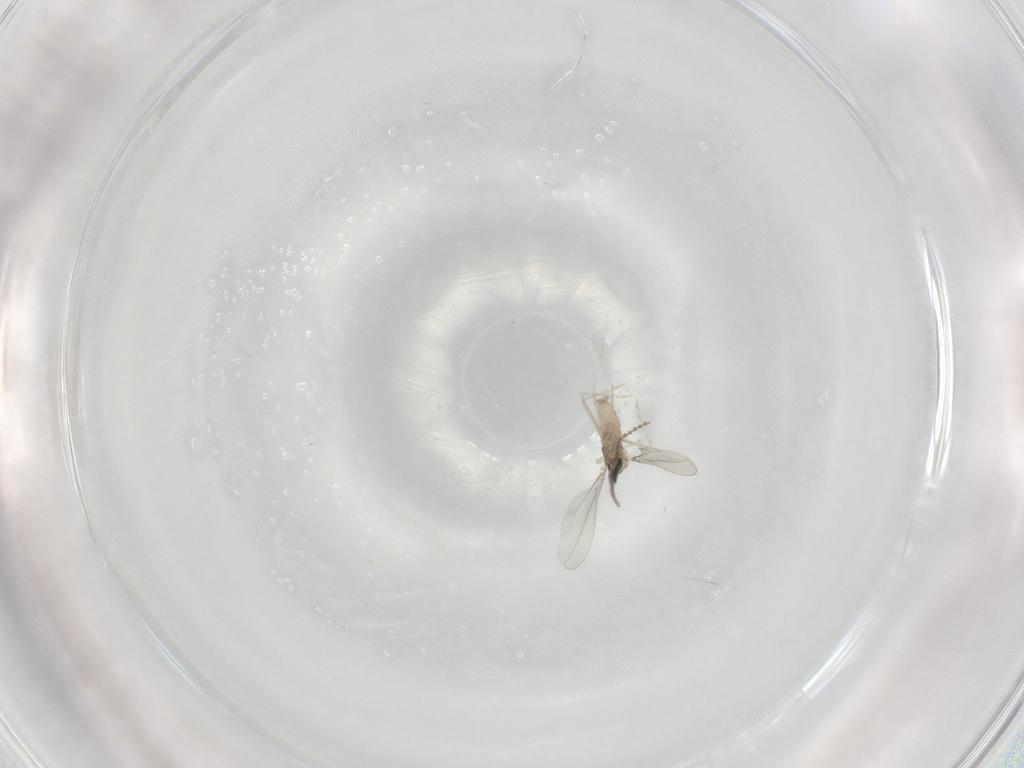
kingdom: Animalia
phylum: Arthropoda
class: Insecta
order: Diptera
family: Cecidomyiidae
